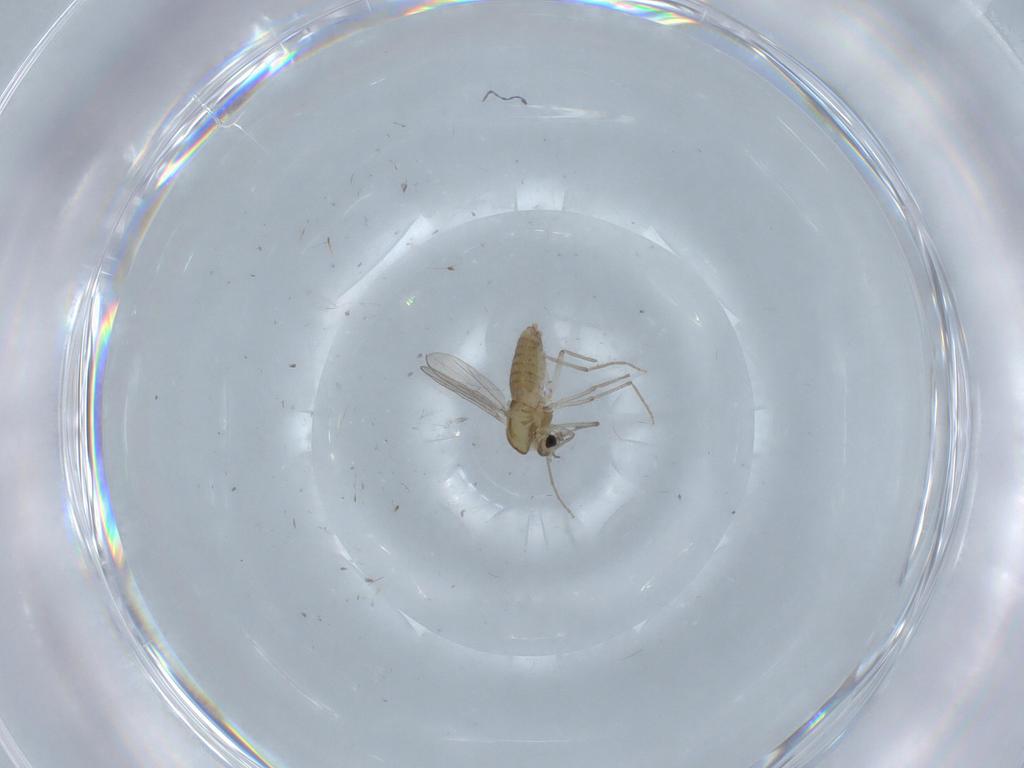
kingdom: Animalia
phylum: Arthropoda
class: Insecta
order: Diptera
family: Chironomidae
